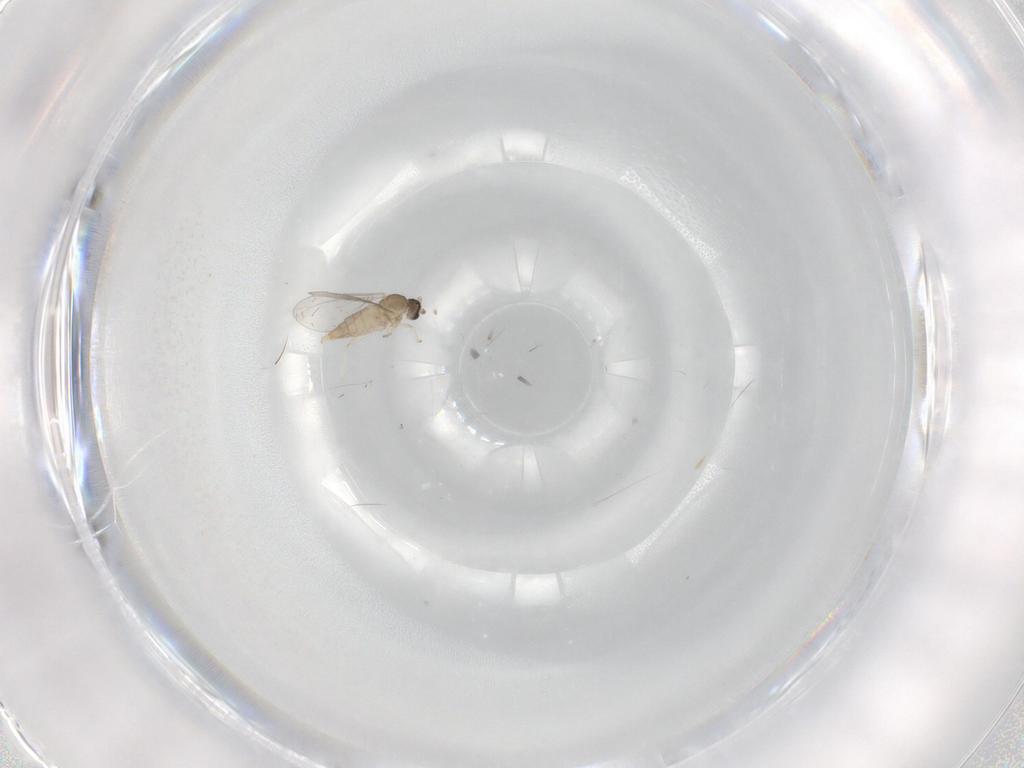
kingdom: Animalia
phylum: Arthropoda
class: Insecta
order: Diptera
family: Cecidomyiidae
